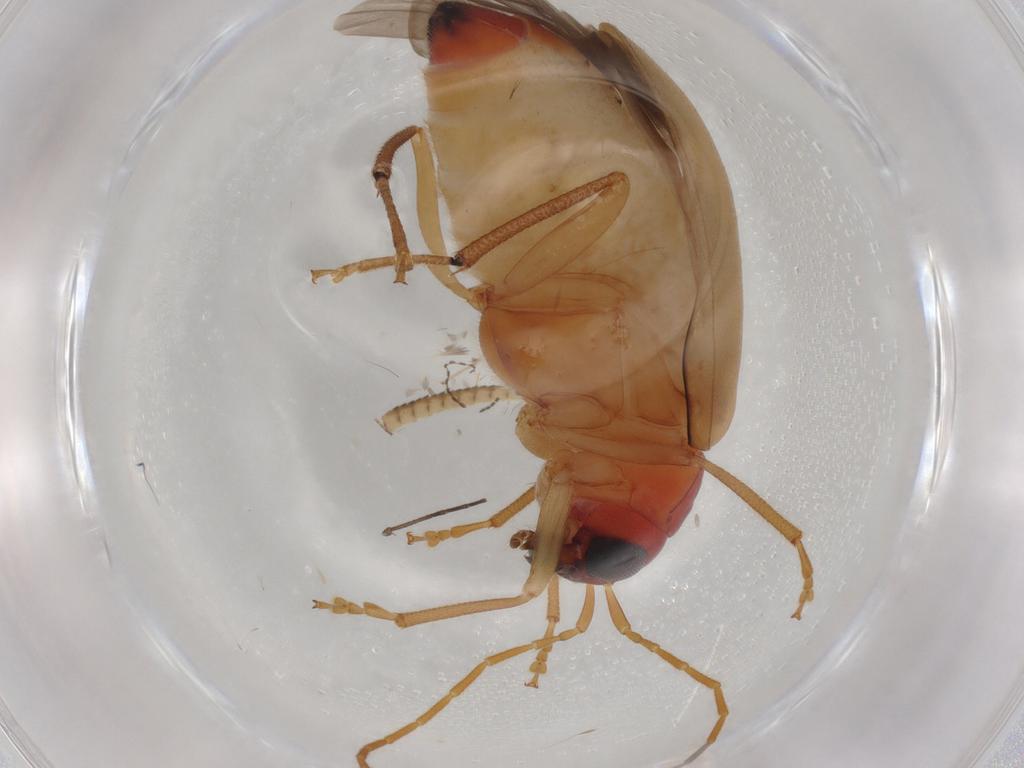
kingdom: Animalia
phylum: Arthropoda
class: Insecta
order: Coleoptera
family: Chrysomelidae
